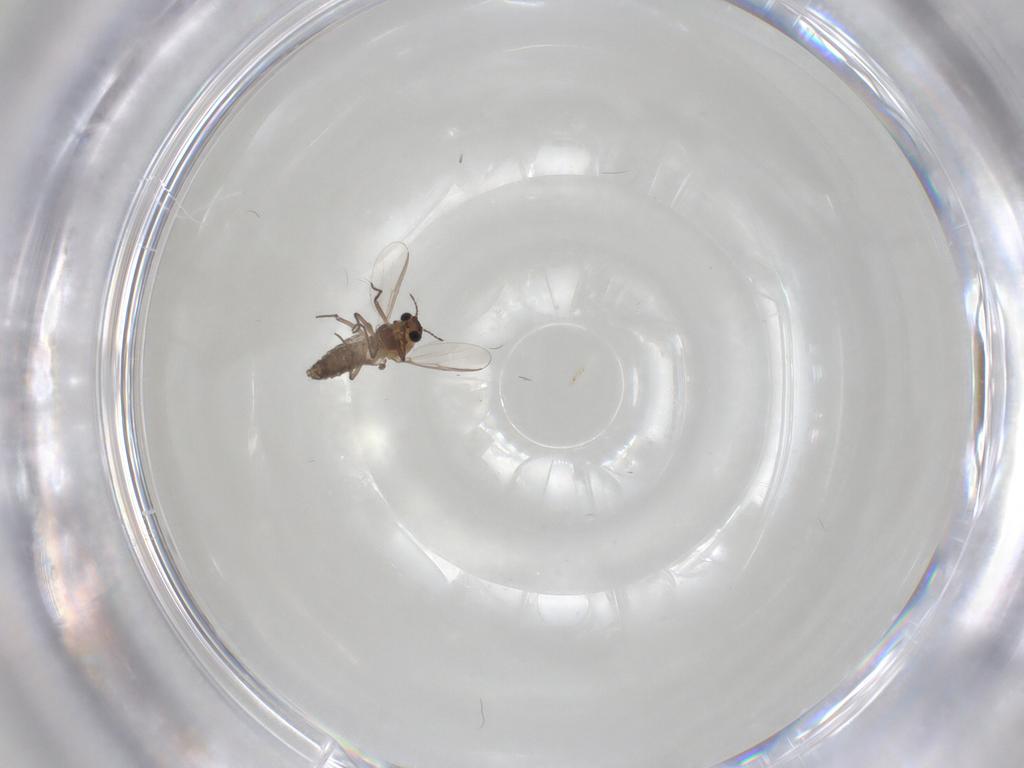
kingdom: Animalia
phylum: Arthropoda
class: Insecta
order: Diptera
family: Chironomidae
